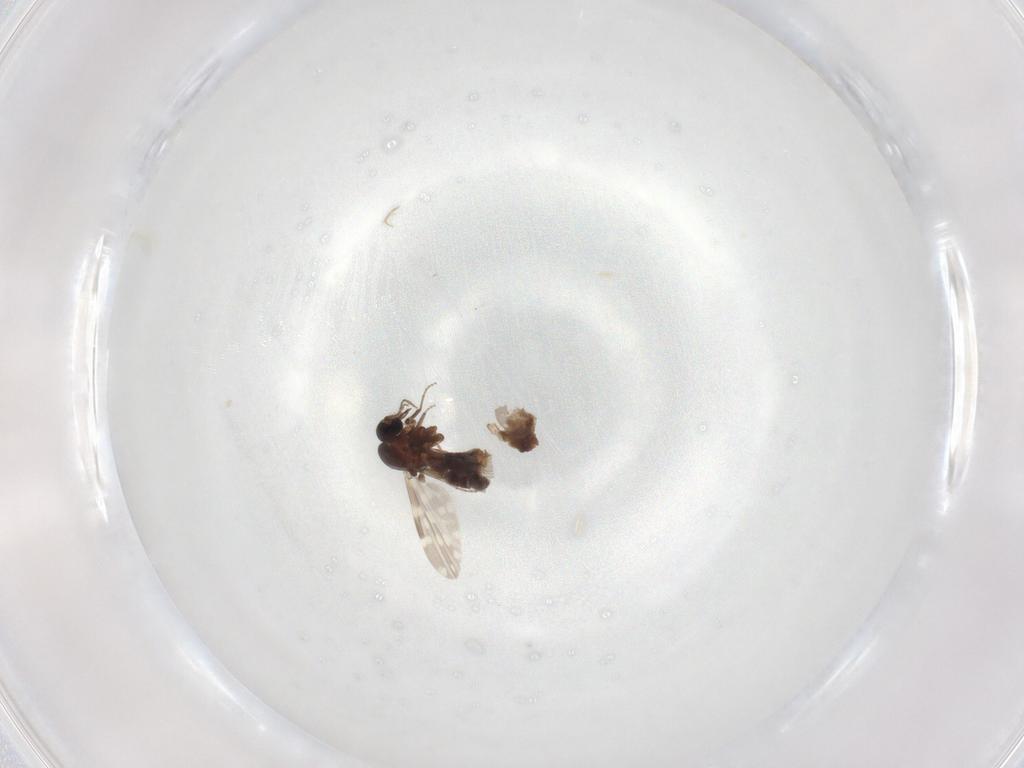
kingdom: Animalia
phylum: Arthropoda
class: Insecta
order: Diptera
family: Ceratopogonidae
